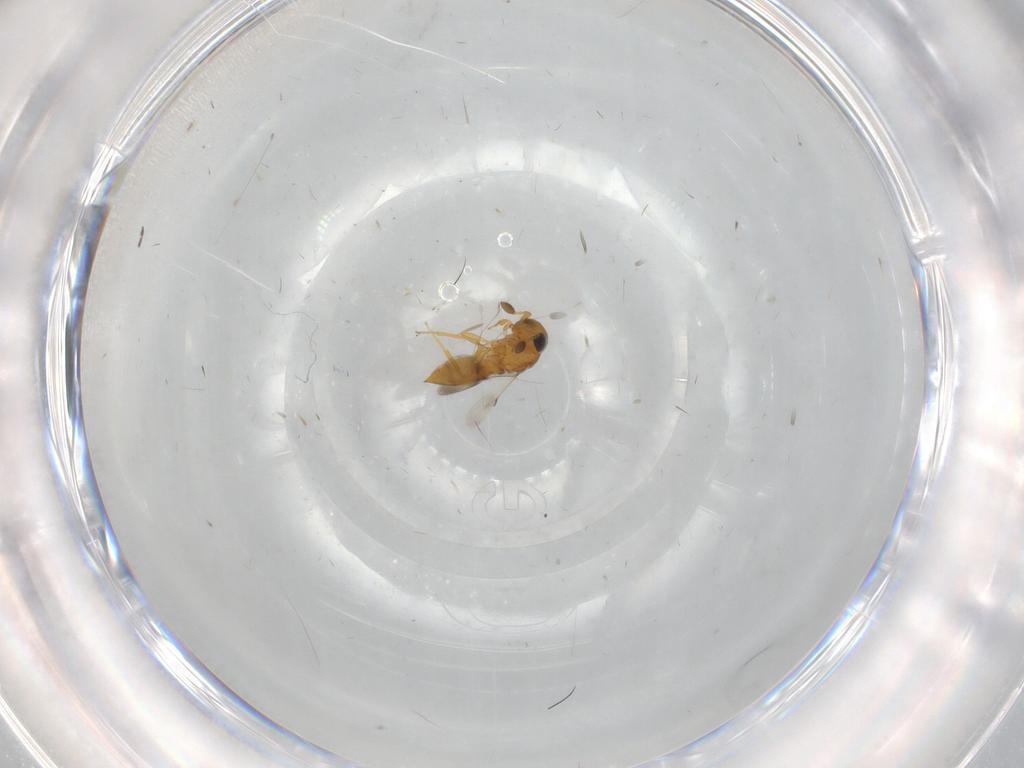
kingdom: Animalia
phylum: Arthropoda
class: Insecta
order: Hymenoptera
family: Scelionidae
